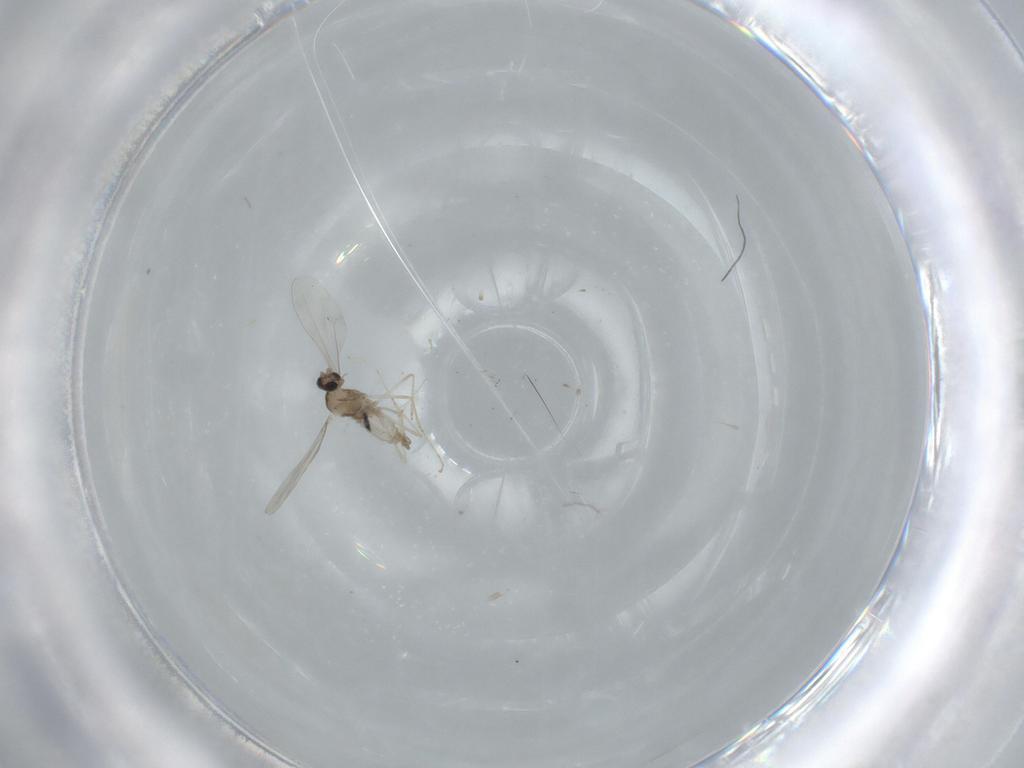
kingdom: Animalia
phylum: Arthropoda
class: Insecta
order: Diptera
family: Cecidomyiidae
